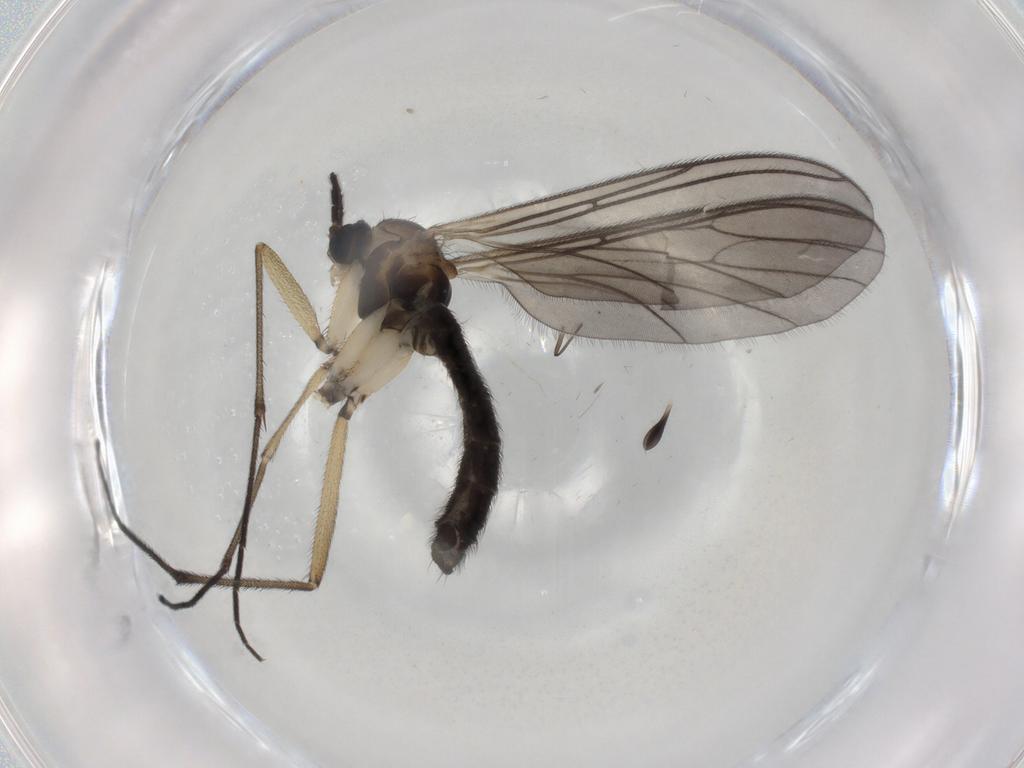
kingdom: Animalia
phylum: Arthropoda
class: Insecta
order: Diptera
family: Sciaridae
